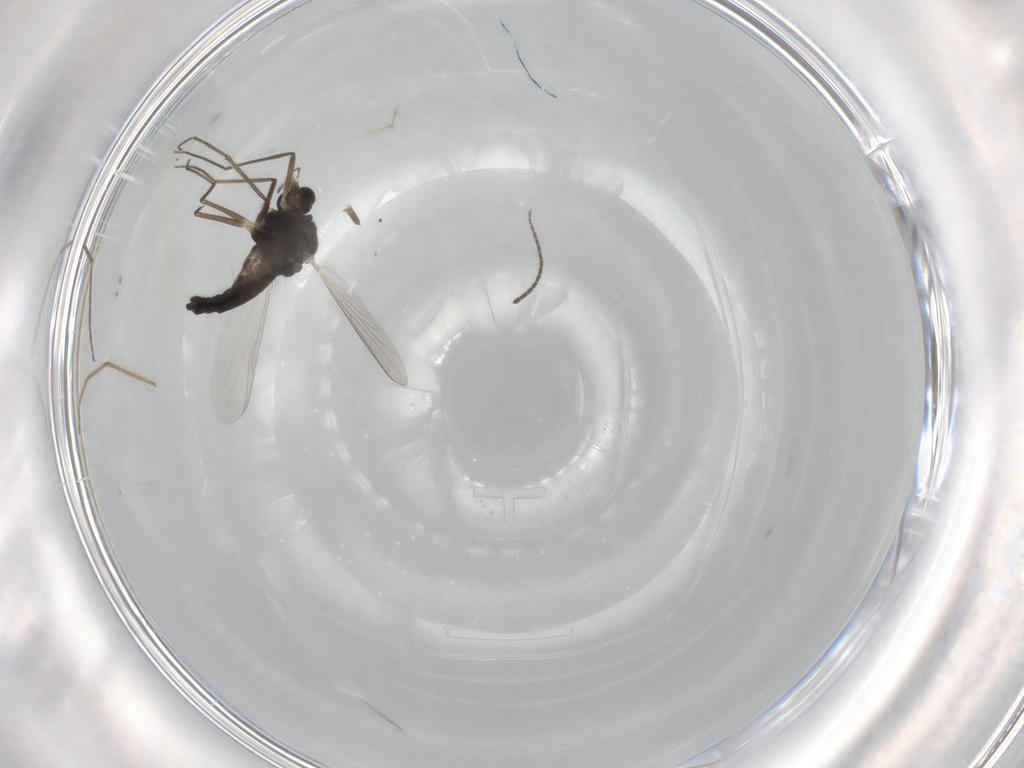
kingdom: Animalia
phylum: Arthropoda
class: Insecta
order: Diptera
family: Chironomidae
